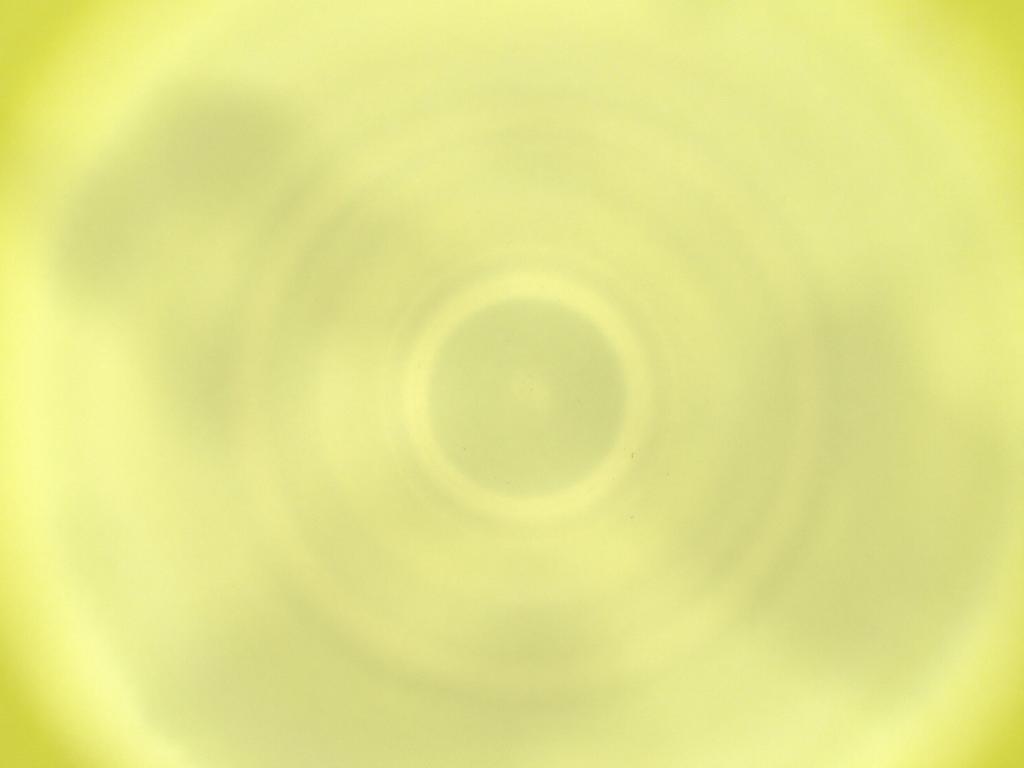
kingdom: Animalia
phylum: Arthropoda
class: Insecta
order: Diptera
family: Cecidomyiidae
